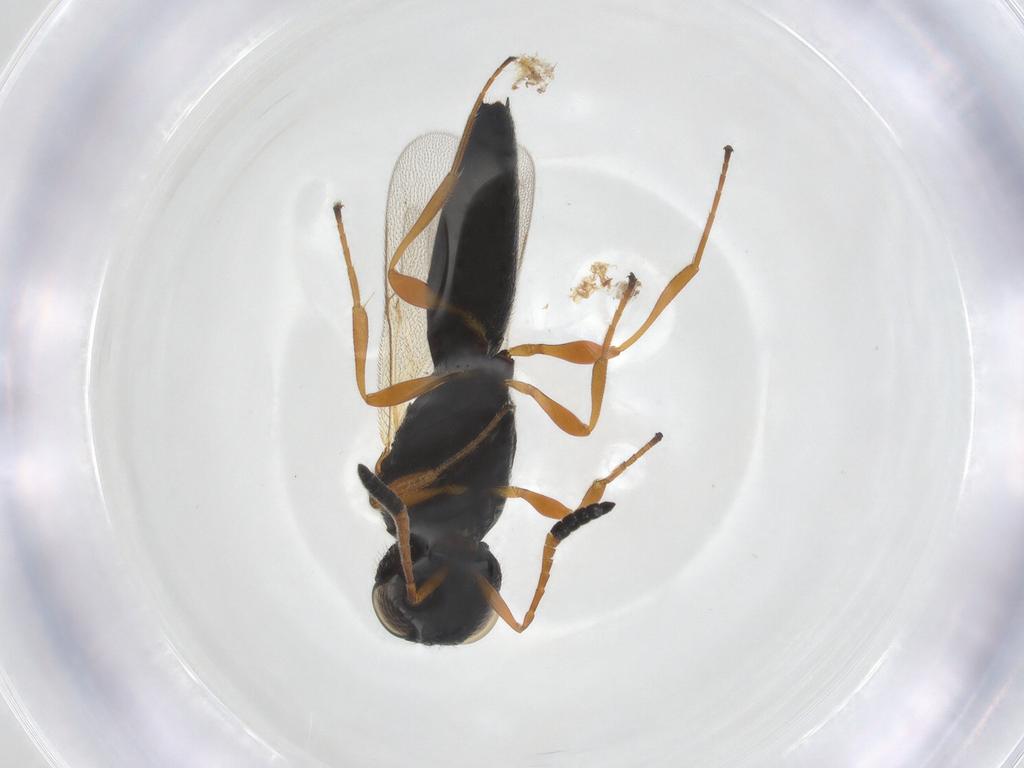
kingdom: Animalia
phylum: Arthropoda
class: Insecta
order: Hymenoptera
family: Scelionidae
